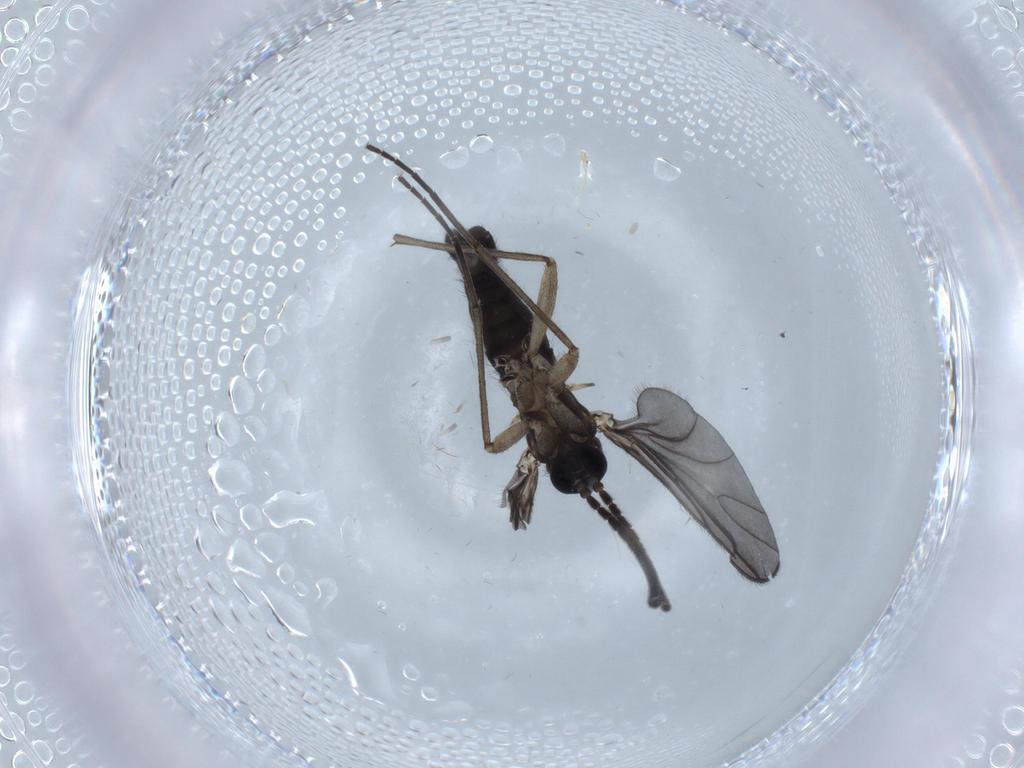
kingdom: Animalia
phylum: Arthropoda
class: Insecta
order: Diptera
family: Sciaridae
